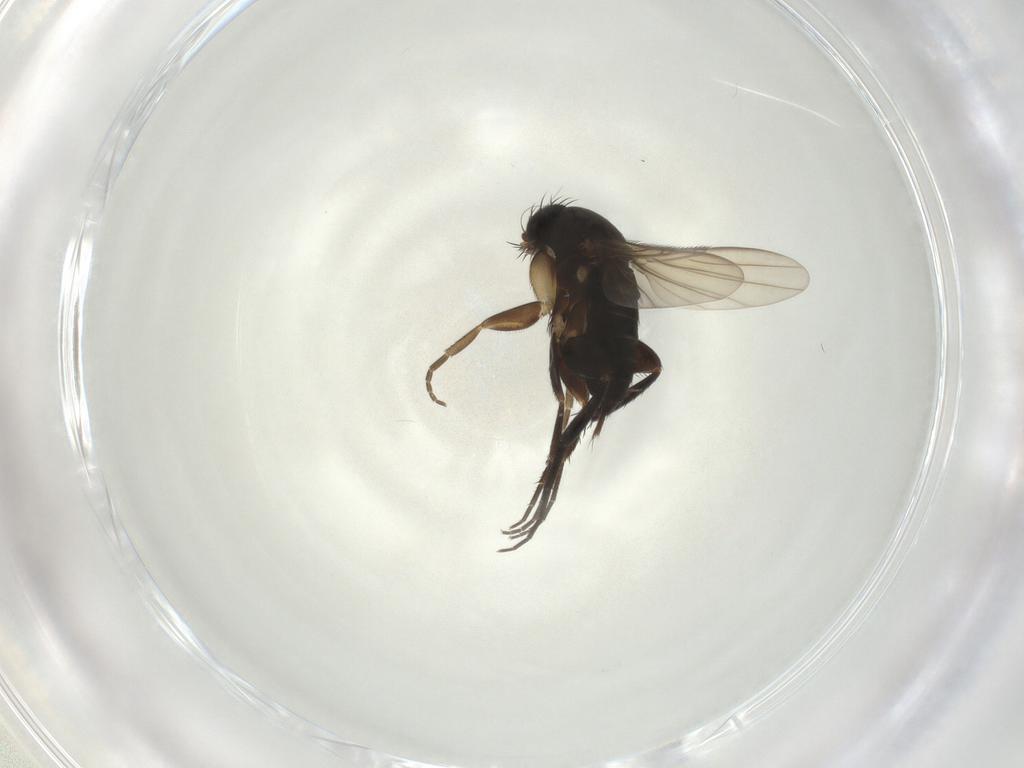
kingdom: Animalia
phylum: Arthropoda
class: Insecta
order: Diptera
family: Phoridae
